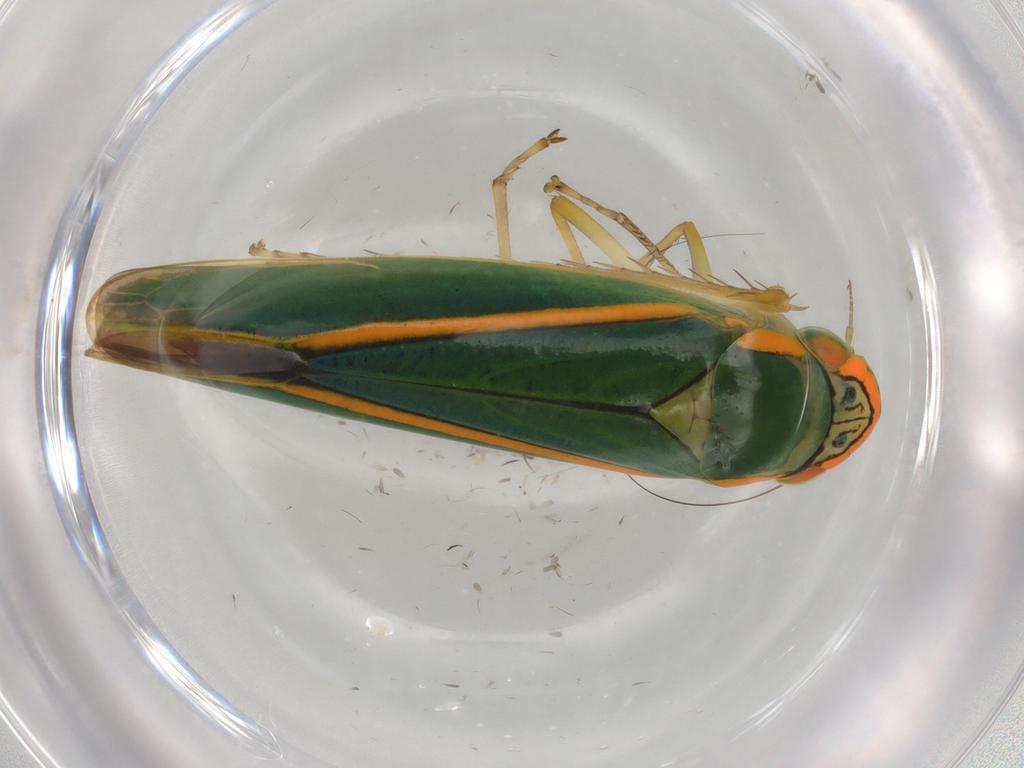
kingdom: Animalia
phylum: Arthropoda
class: Insecta
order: Hemiptera
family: Cicadellidae
